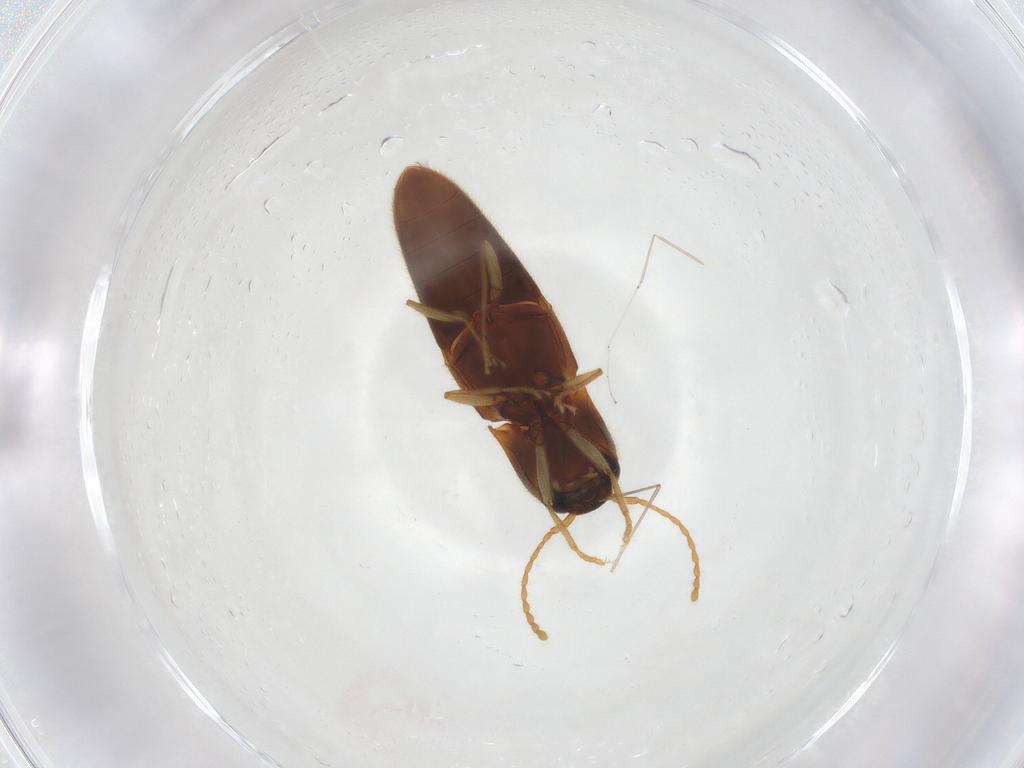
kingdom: Animalia
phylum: Arthropoda
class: Insecta
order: Coleoptera
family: Elateridae
